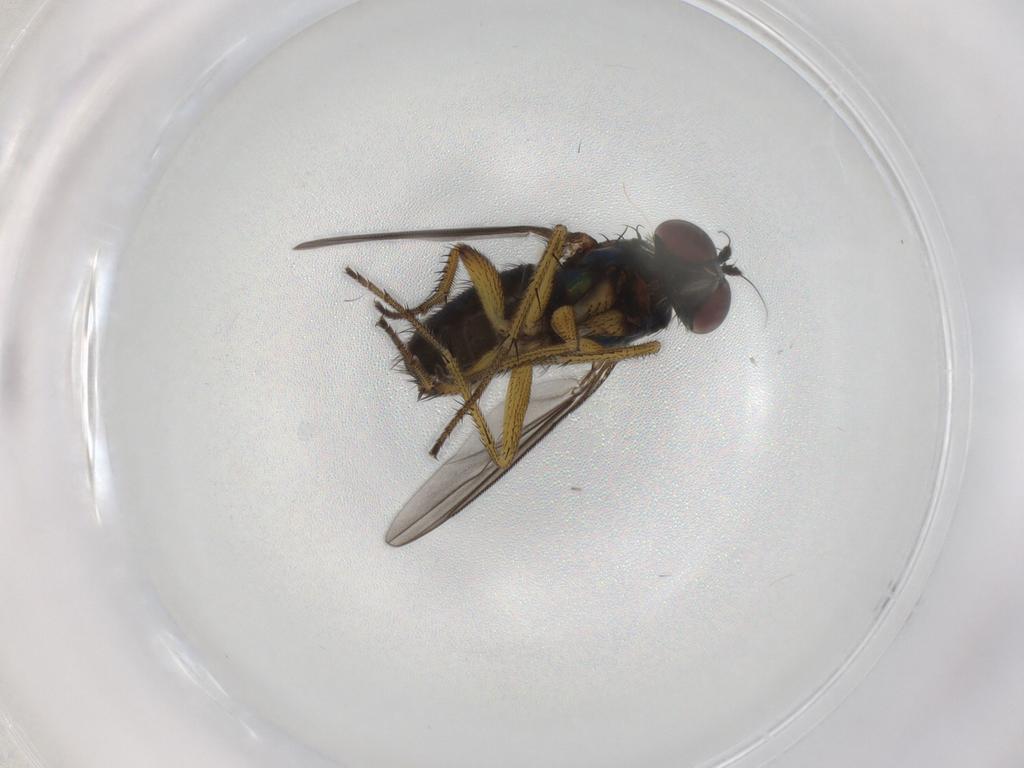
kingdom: Animalia
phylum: Arthropoda
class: Insecta
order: Diptera
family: Dolichopodidae
